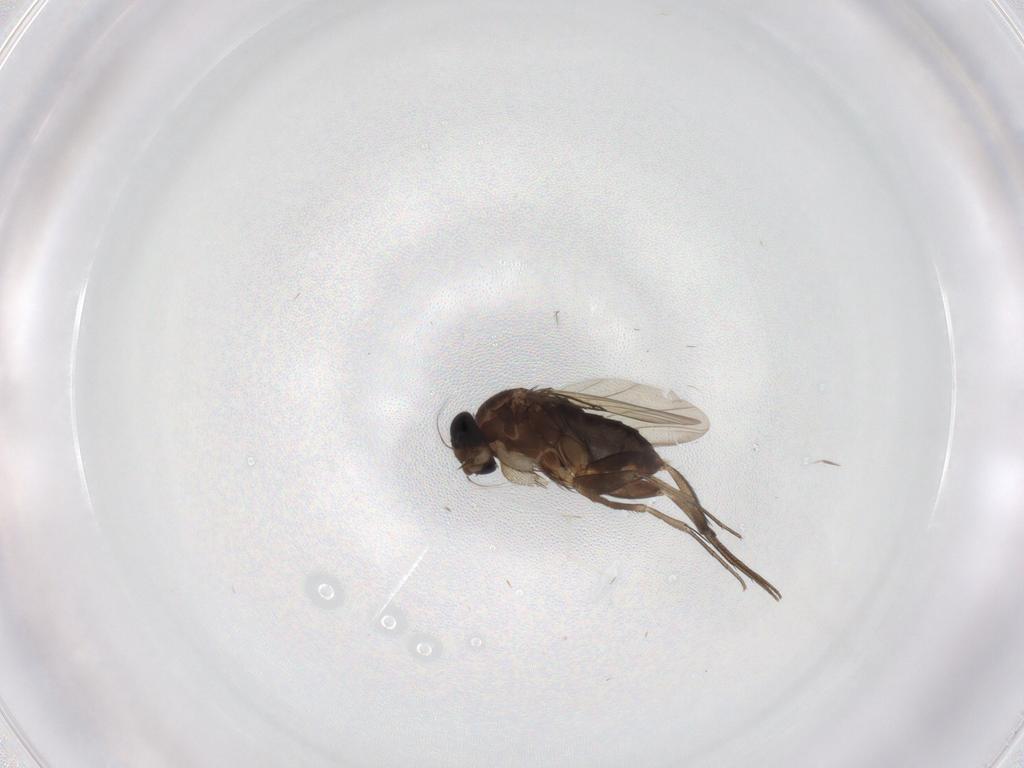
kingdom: Animalia
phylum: Arthropoda
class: Insecta
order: Diptera
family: Phoridae
